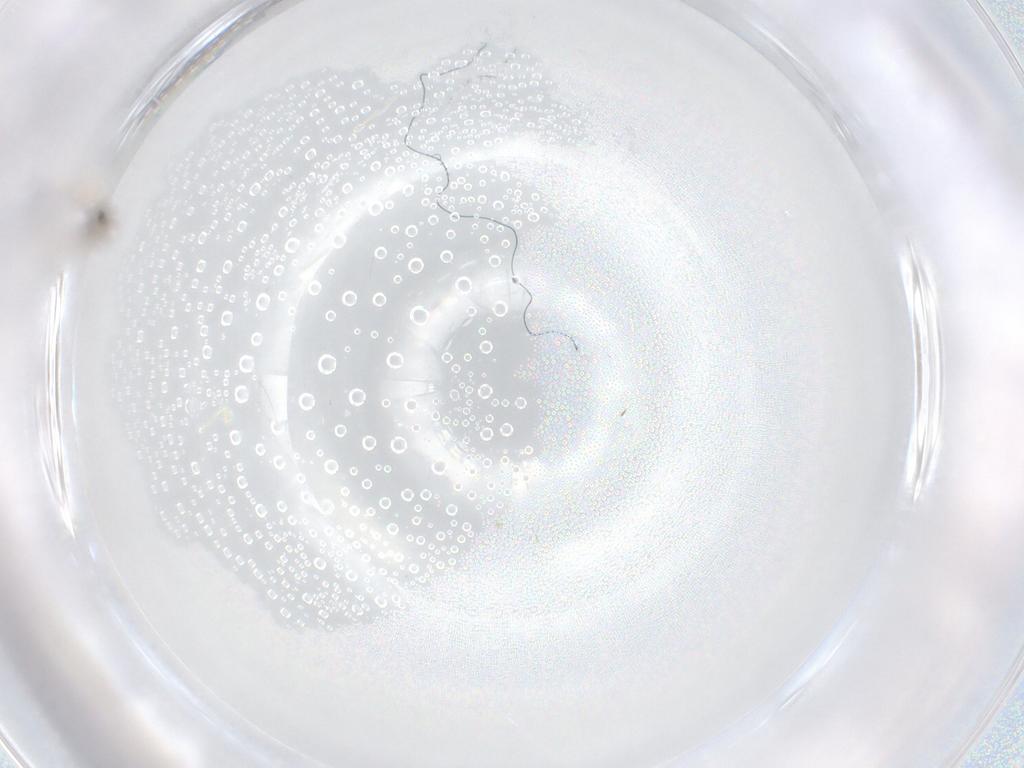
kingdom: Animalia
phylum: Arthropoda
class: Insecta
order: Diptera
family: Cecidomyiidae
